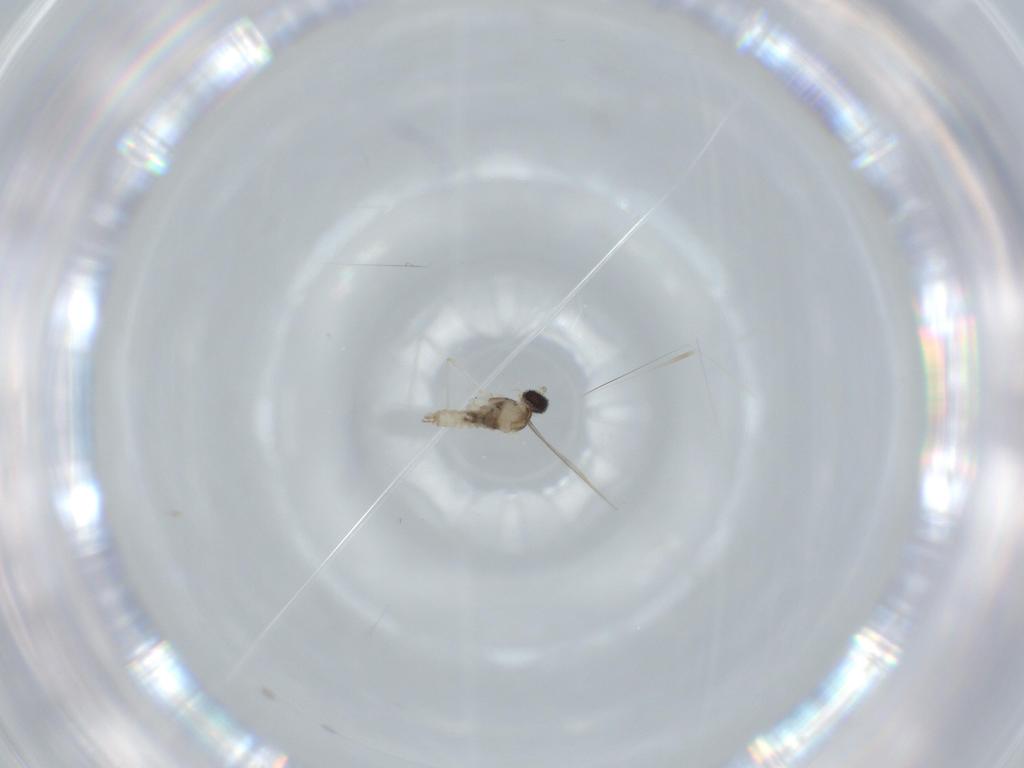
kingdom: Animalia
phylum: Arthropoda
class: Insecta
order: Diptera
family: Cecidomyiidae
